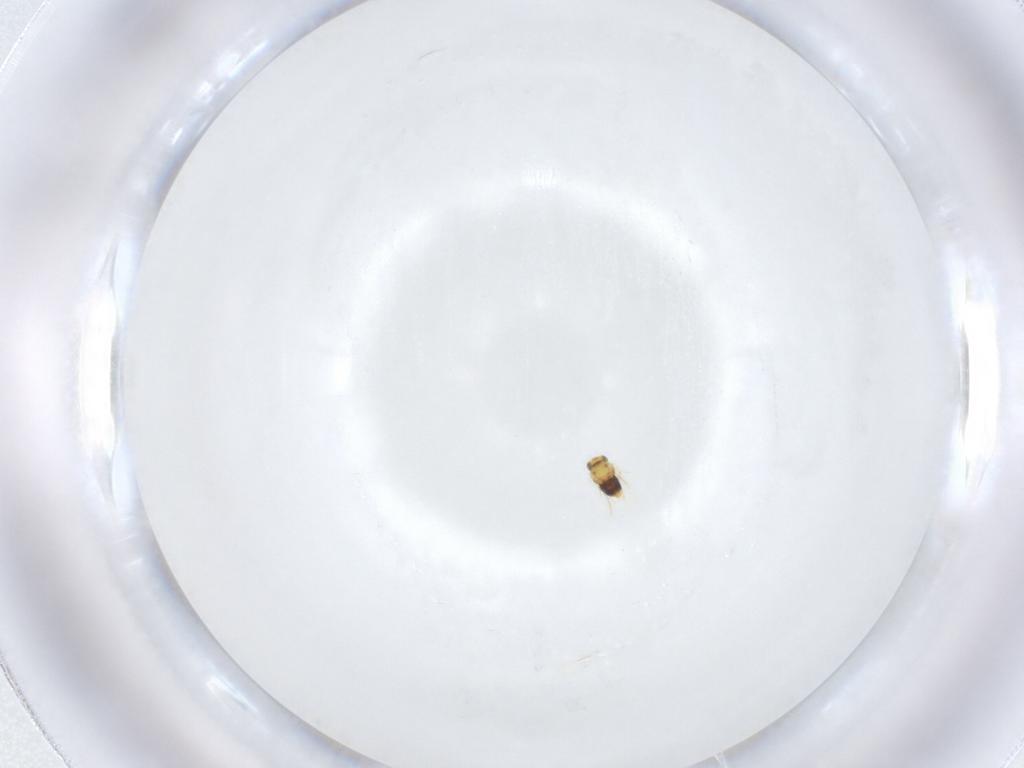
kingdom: Animalia
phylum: Arthropoda
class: Insecta
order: Hymenoptera
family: Aphelinidae
